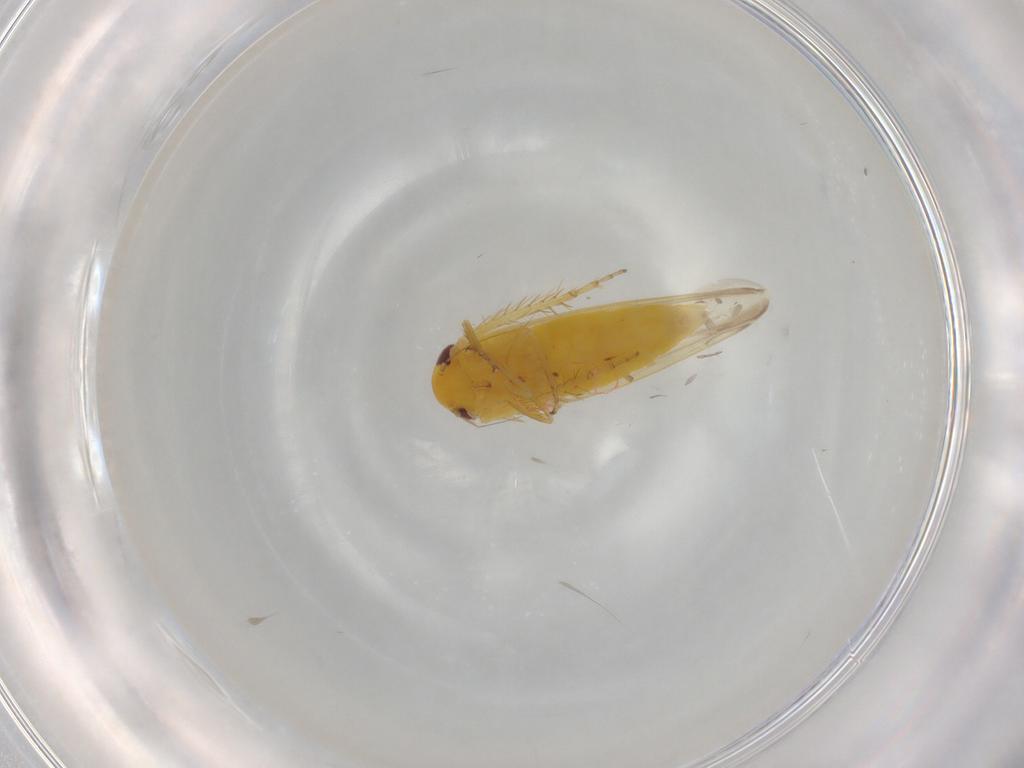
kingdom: Animalia
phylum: Arthropoda
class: Insecta
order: Hemiptera
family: Cicadellidae
